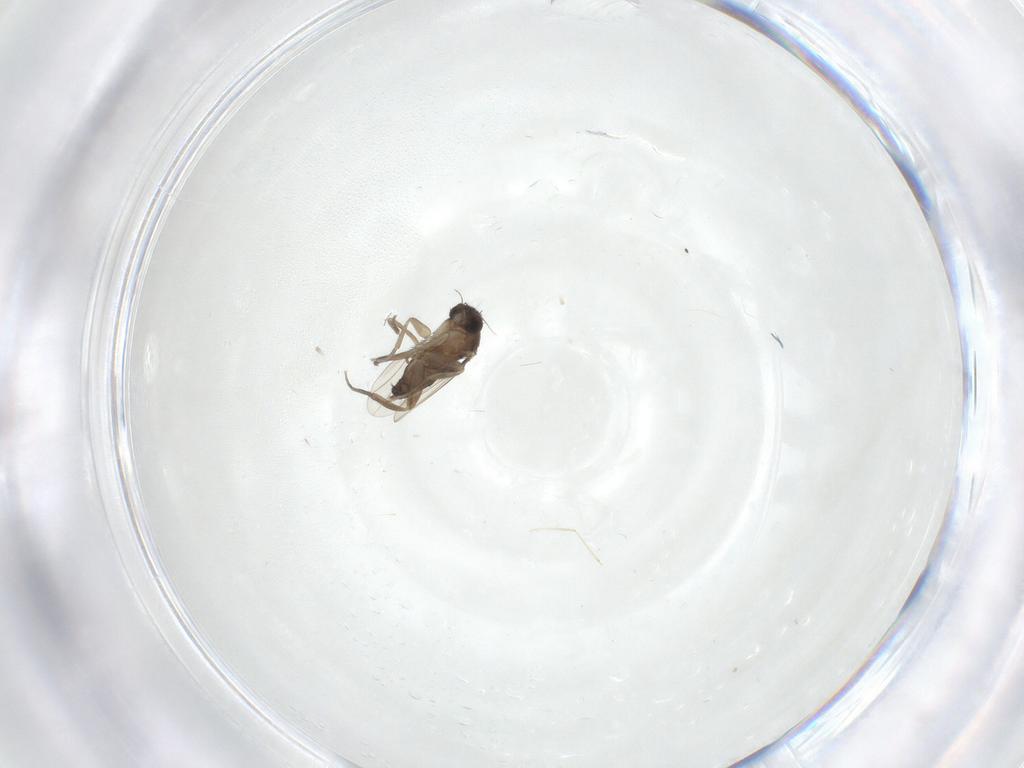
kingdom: Animalia
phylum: Arthropoda
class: Insecta
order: Diptera
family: Phoridae
